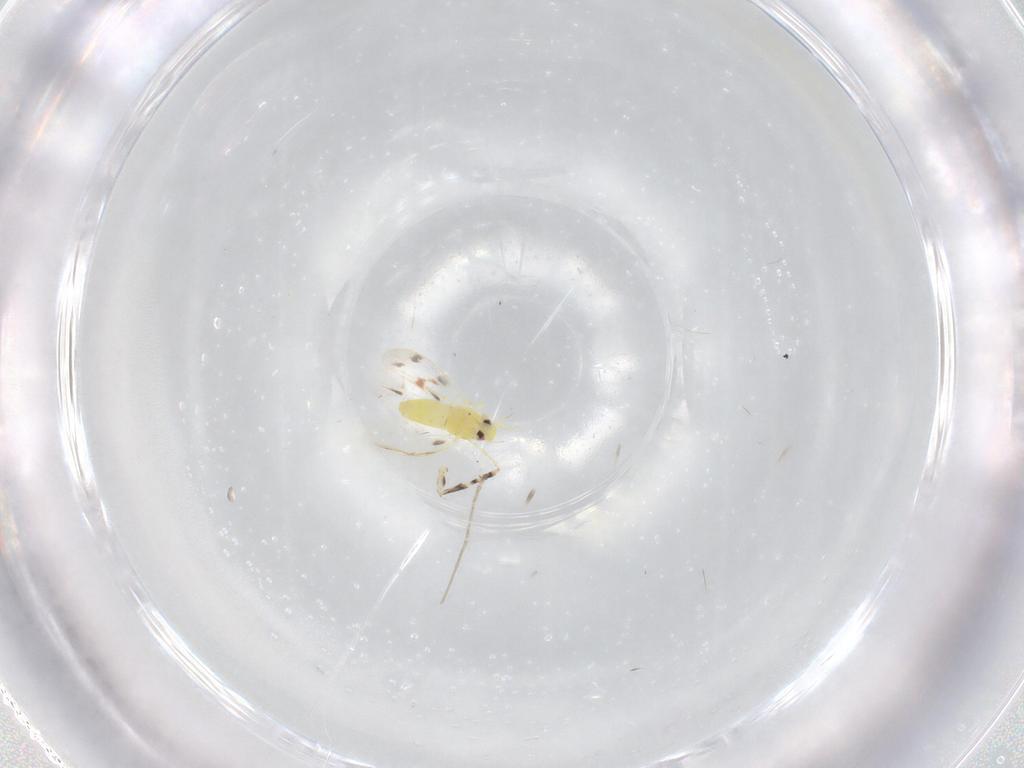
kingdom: Animalia
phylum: Arthropoda
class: Insecta
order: Hemiptera
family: Aleyrodidae
